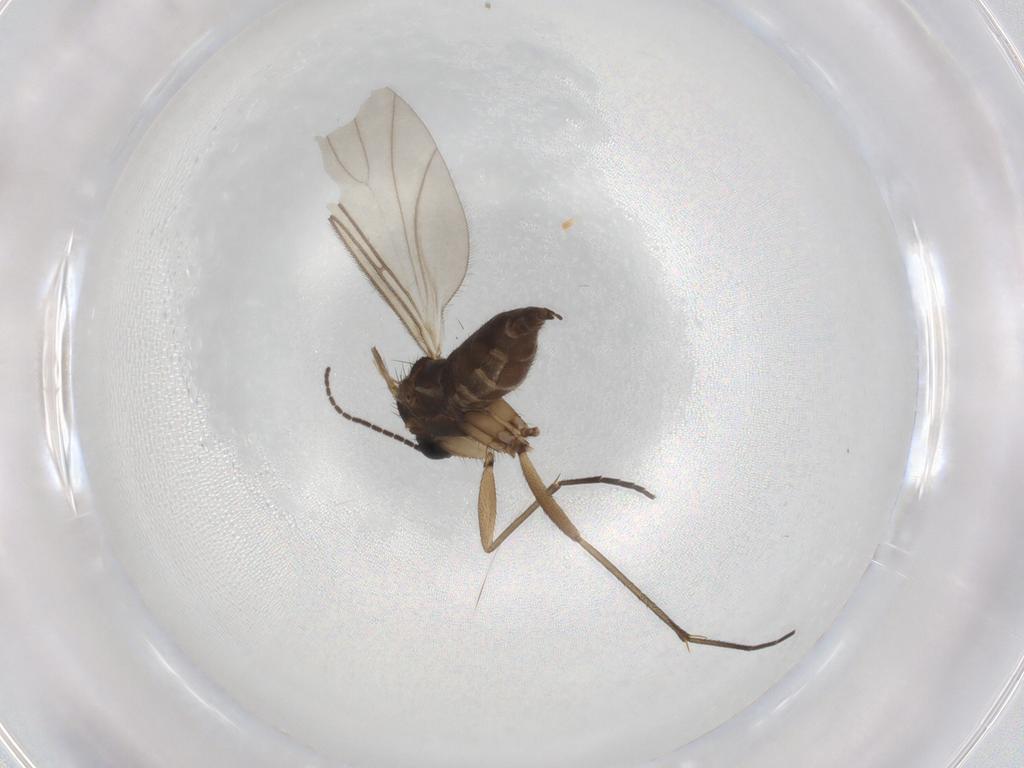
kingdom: Animalia
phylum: Arthropoda
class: Insecta
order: Diptera
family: Sciaridae
